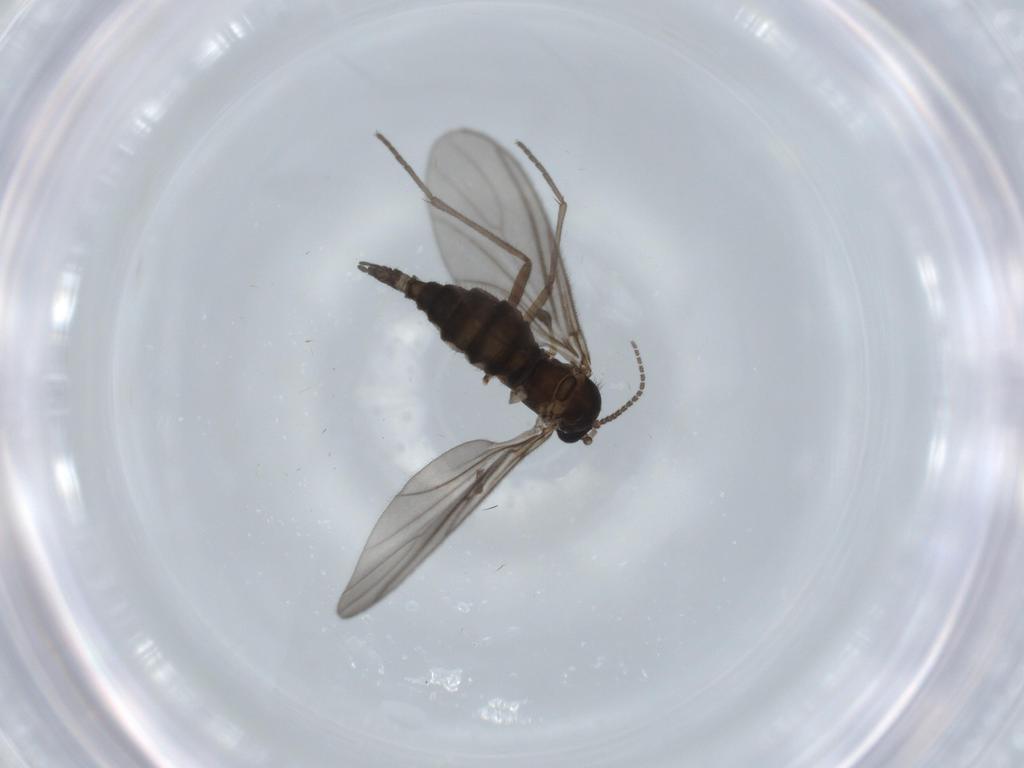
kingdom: Animalia
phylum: Arthropoda
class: Insecta
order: Diptera
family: Sciaridae
